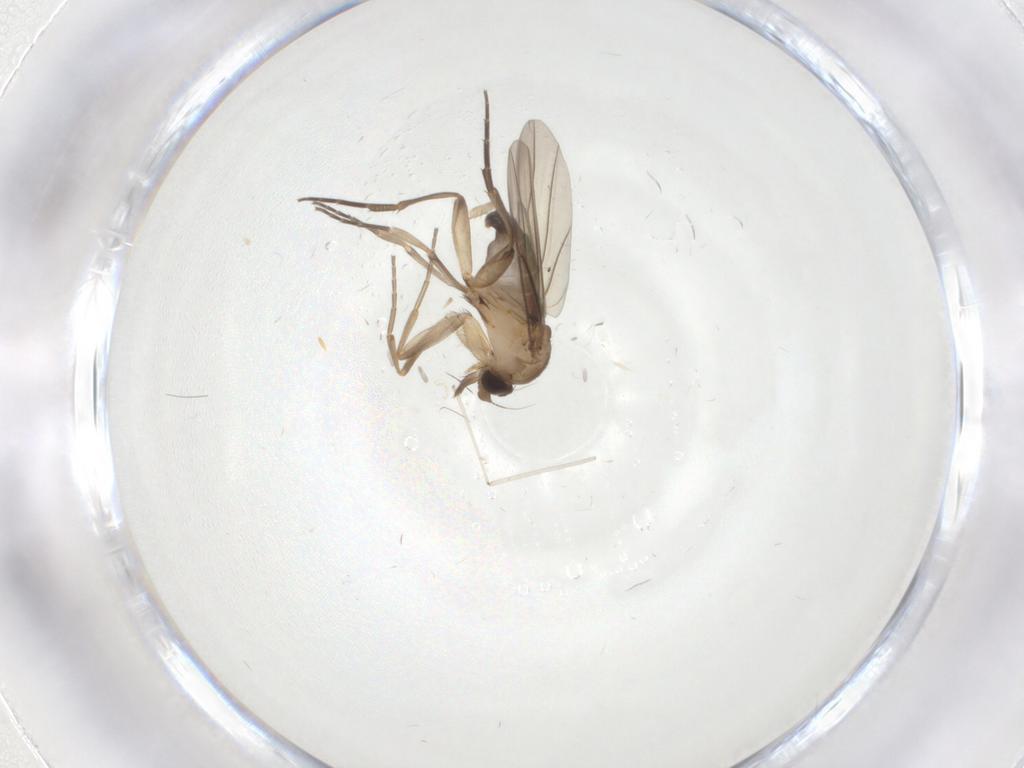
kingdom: Animalia
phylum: Arthropoda
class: Insecta
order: Diptera
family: Phoridae
